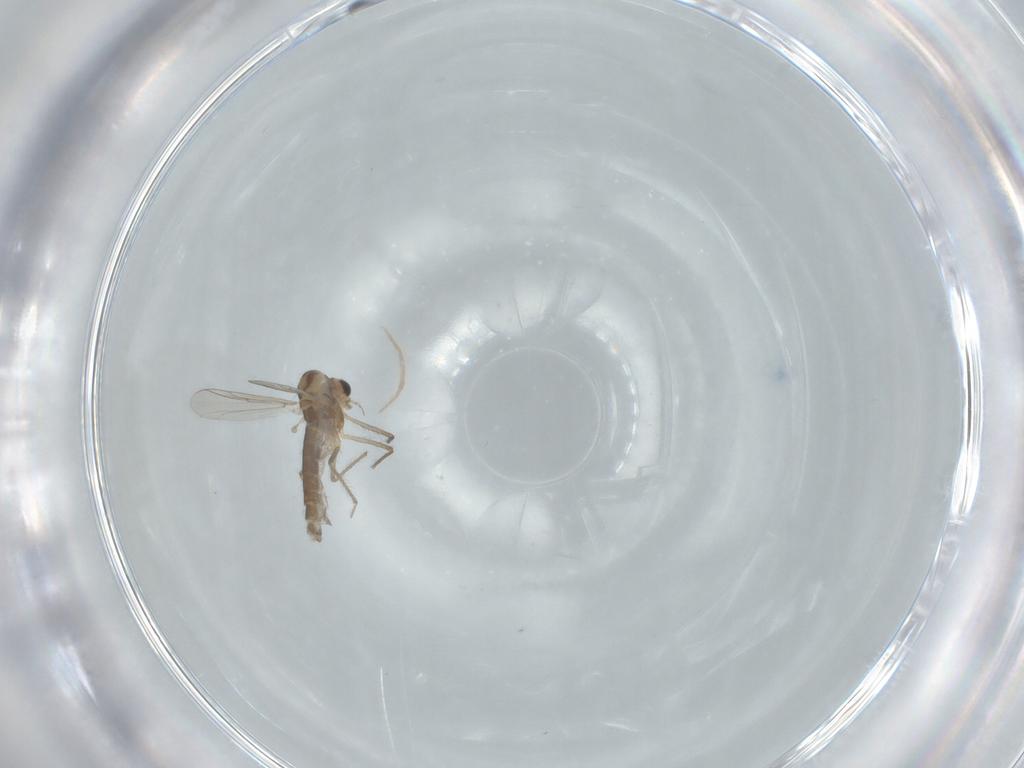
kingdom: Animalia
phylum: Arthropoda
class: Insecta
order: Diptera
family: Chironomidae
